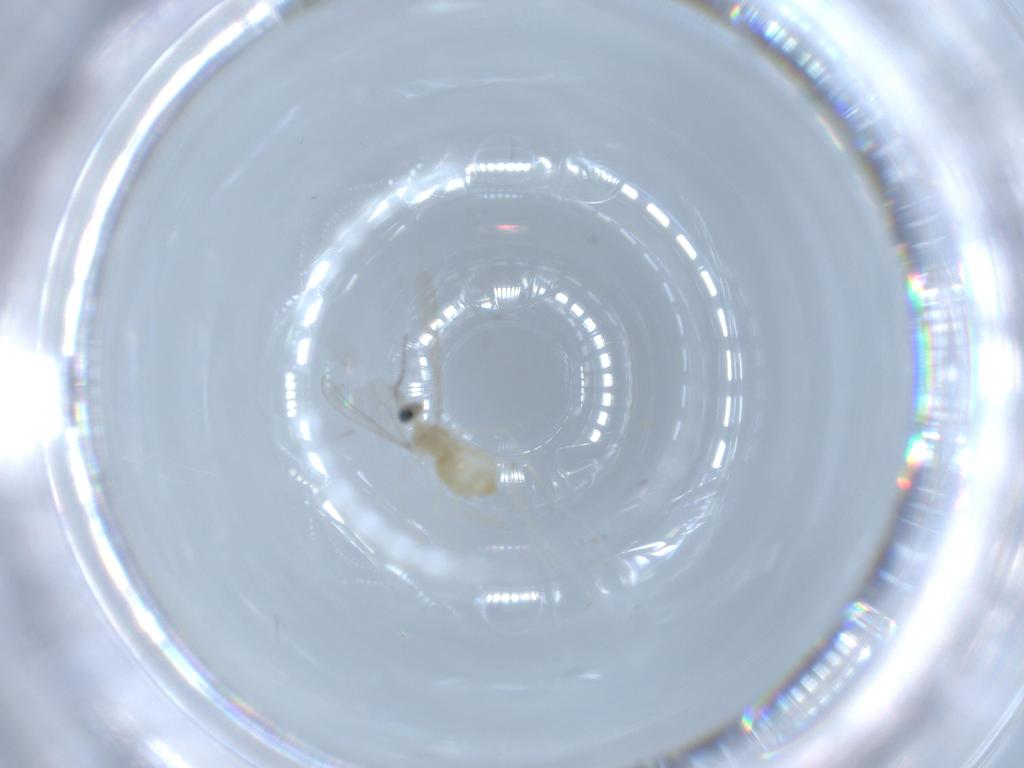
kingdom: Animalia
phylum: Arthropoda
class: Insecta
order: Diptera
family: Cecidomyiidae
